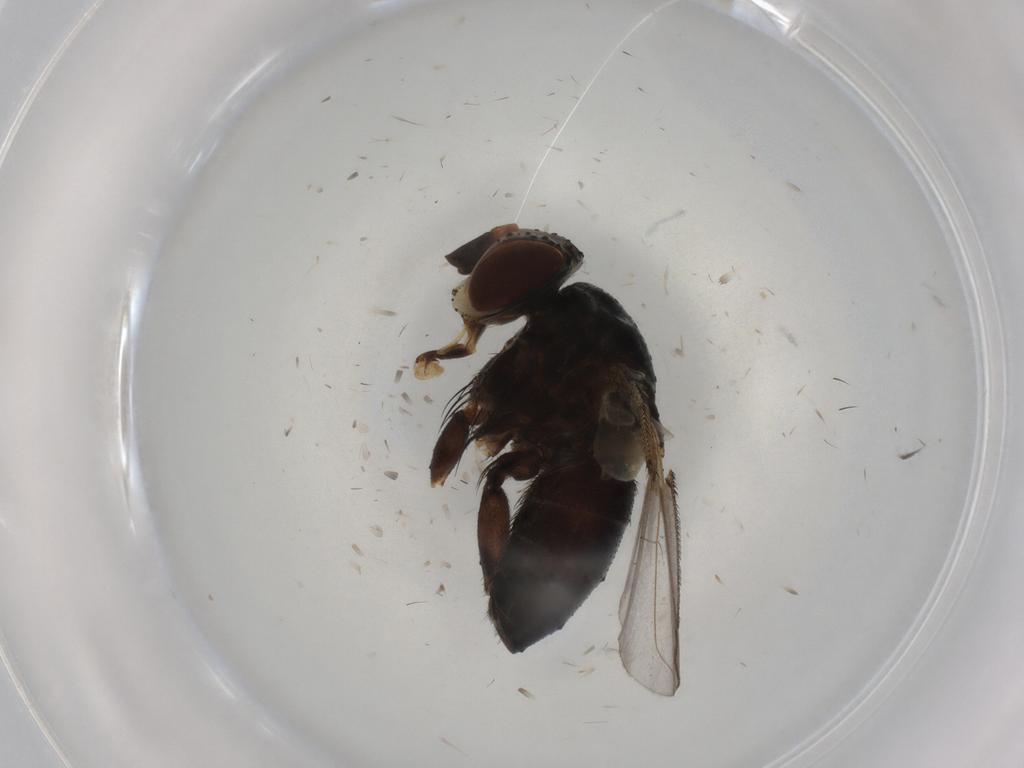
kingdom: Animalia
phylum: Arthropoda
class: Insecta
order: Diptera
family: Tachinidae
